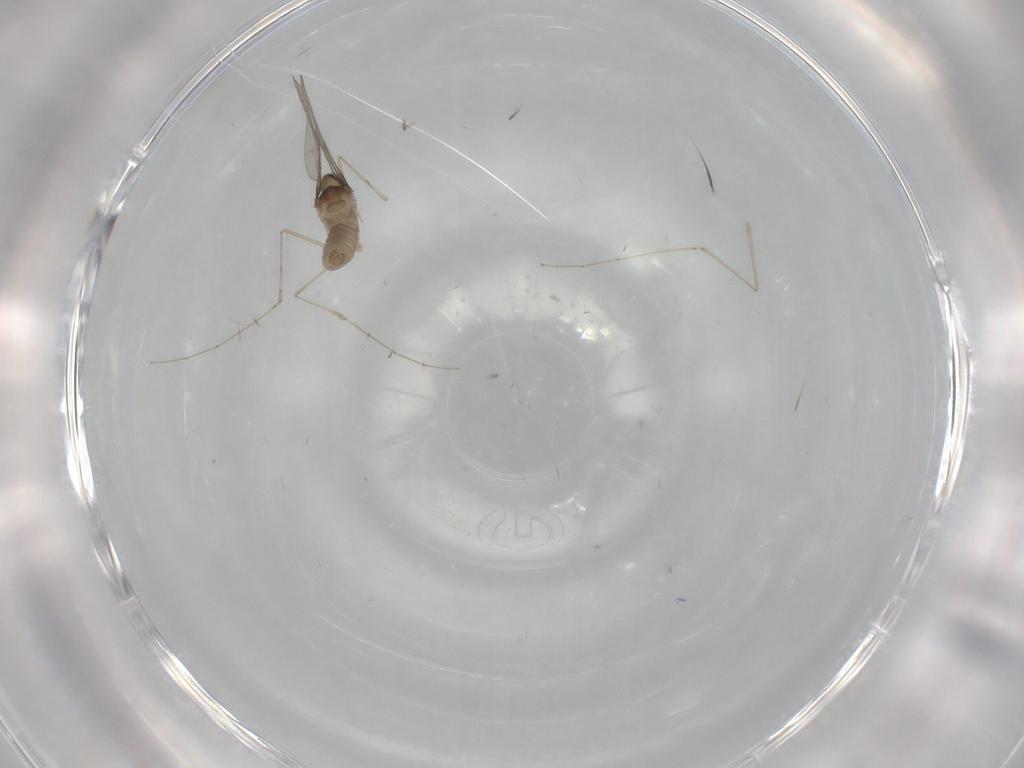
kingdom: Animalia
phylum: Arthropoda
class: Insecta
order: Diptera
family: Cecidomyiidae
